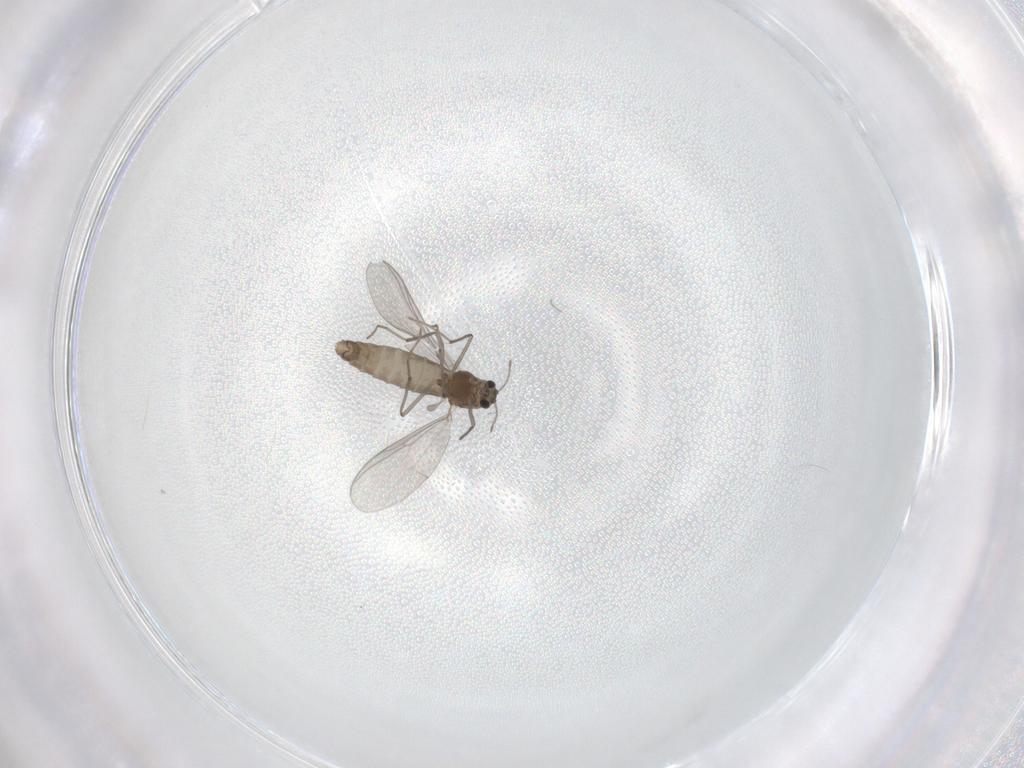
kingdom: Animalia
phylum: Arthropoda
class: Insecta
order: Diptera
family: Chironomidae
